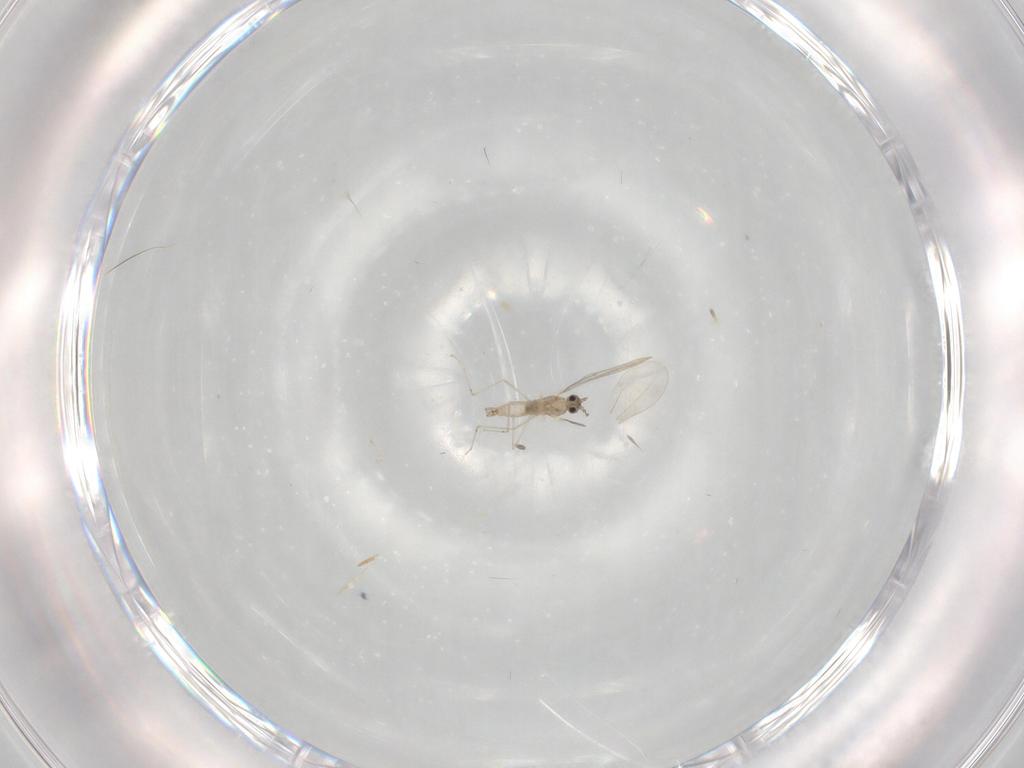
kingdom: Animalia
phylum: Arthropoda
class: Insecta
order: Diptera
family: Cecidomyiidae
